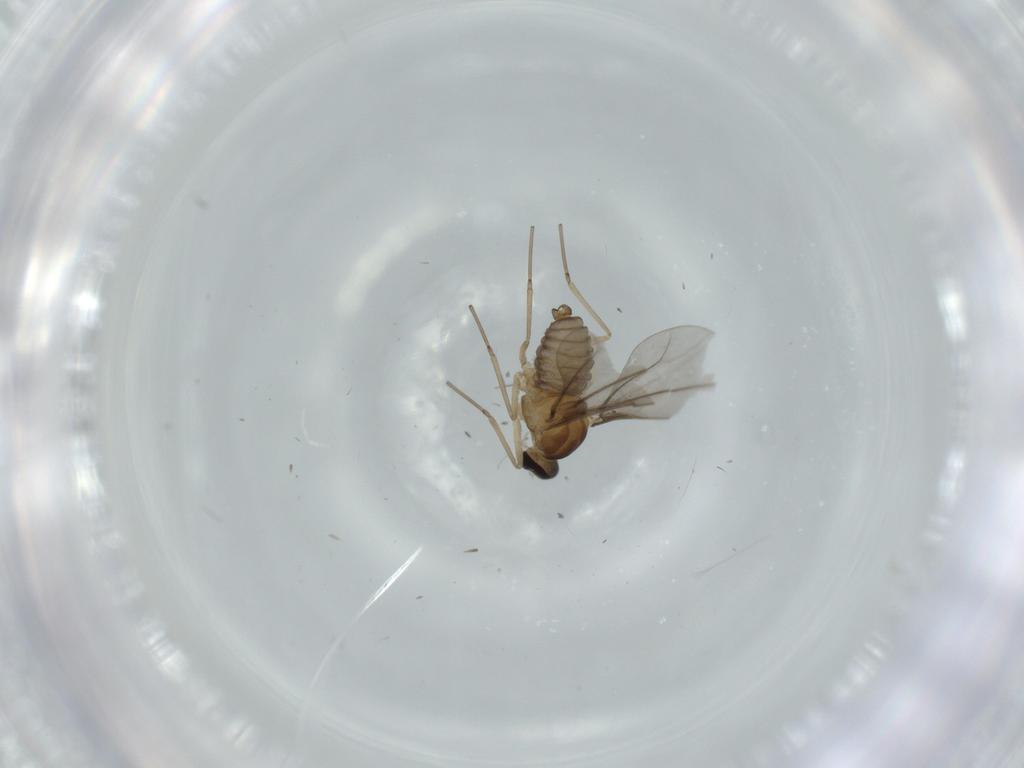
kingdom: Animalia
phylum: Arthropoda
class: Insecta
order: Diptera
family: Cecidomyiidae
